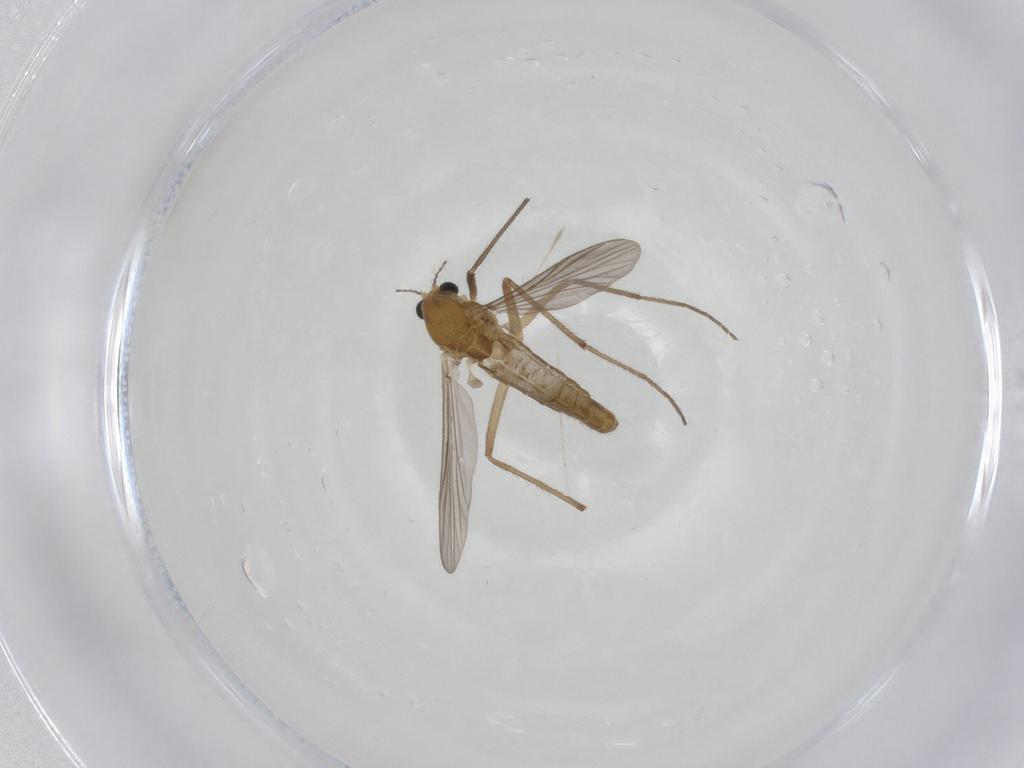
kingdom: Animalia
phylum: Arthropoda
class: Insecta
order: Diptera
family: Chironomidae
